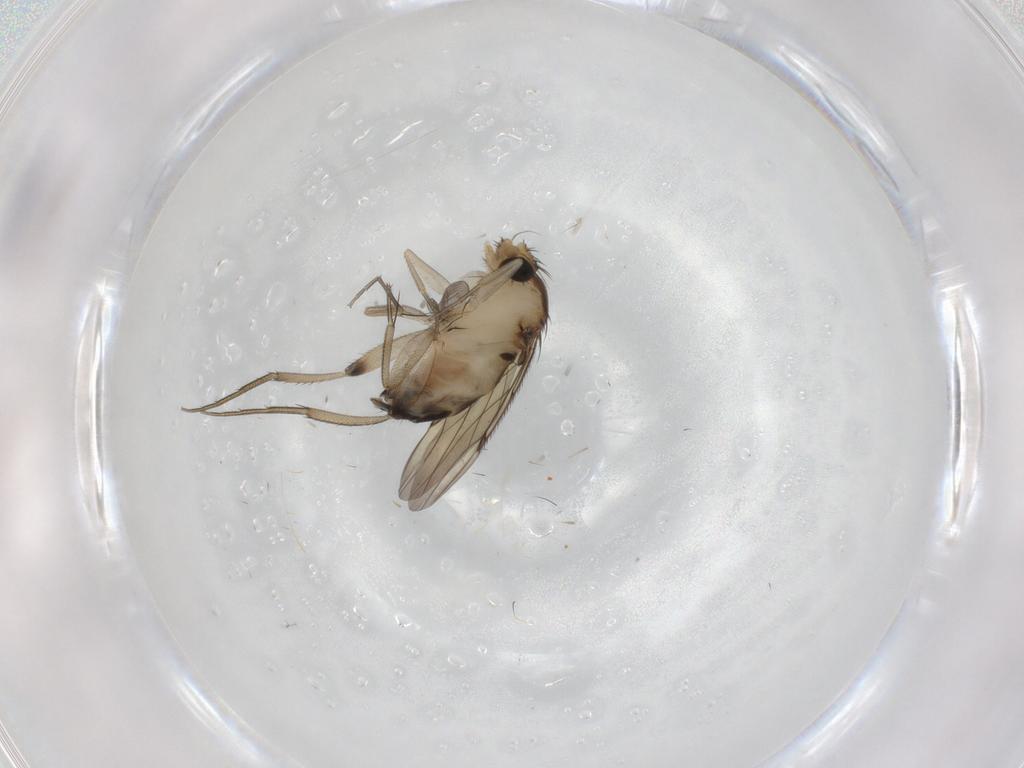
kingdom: Animalia
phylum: Arthropoda
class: Insecta
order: Diptera
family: Phoridae
